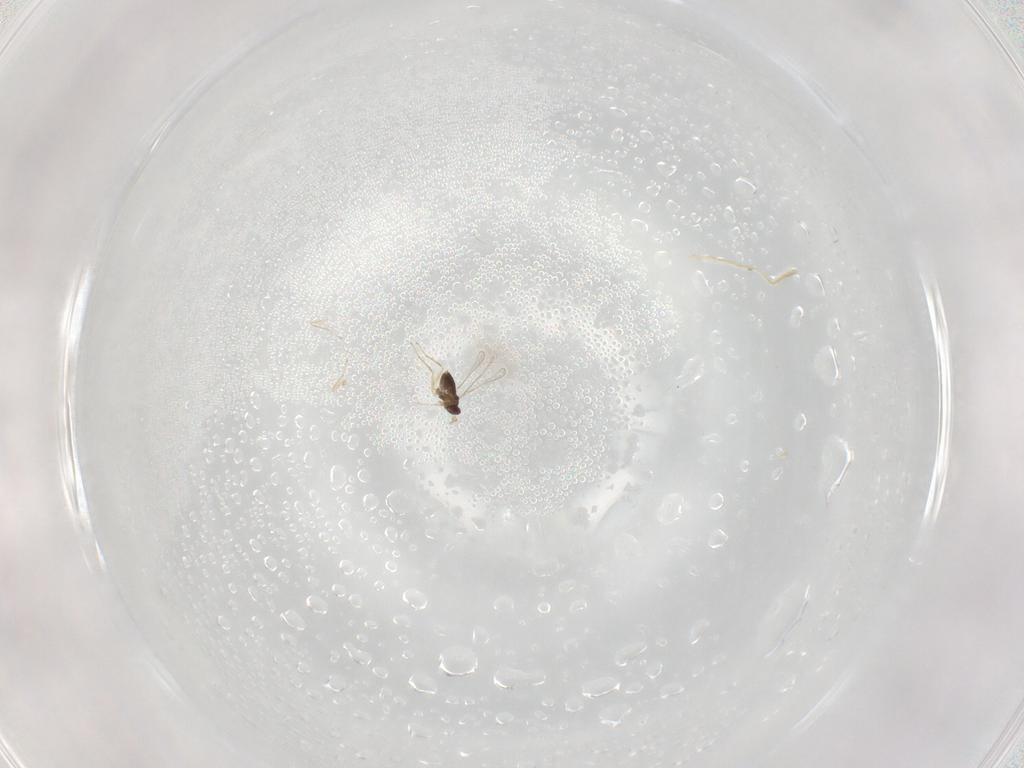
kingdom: Animalia
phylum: Arthropoda
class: Insecta
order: Hymenoptera
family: Mymaridae
